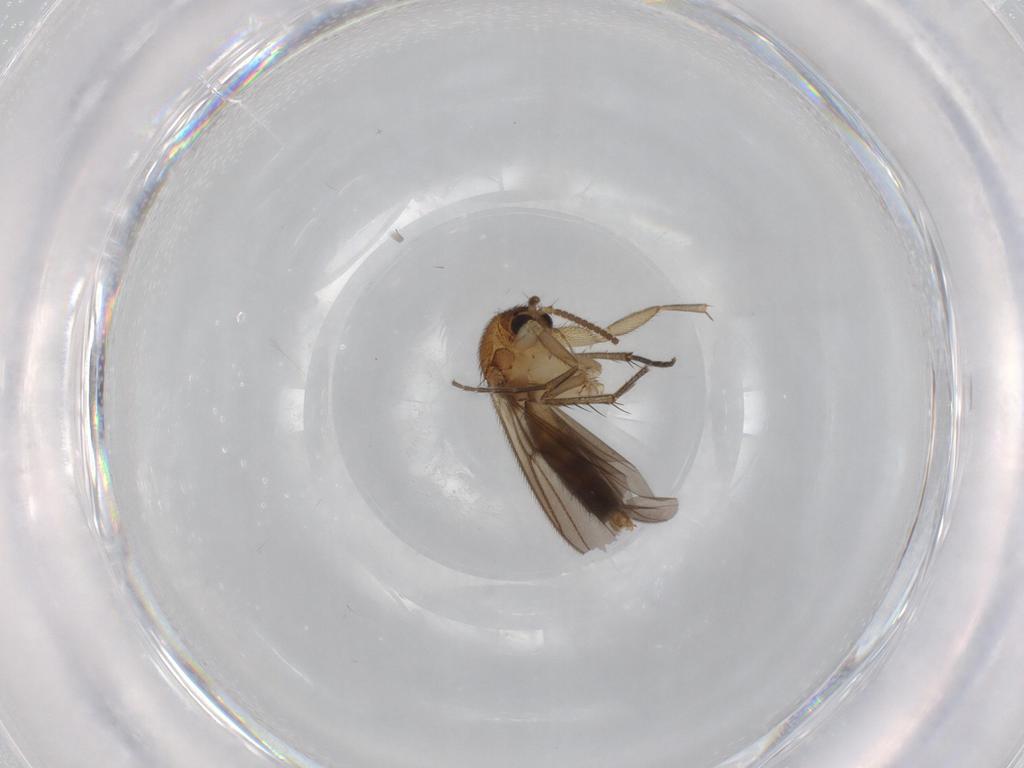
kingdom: Animalia
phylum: Arthropoda
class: Insecta
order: Diptera
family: Mycetophilidae
